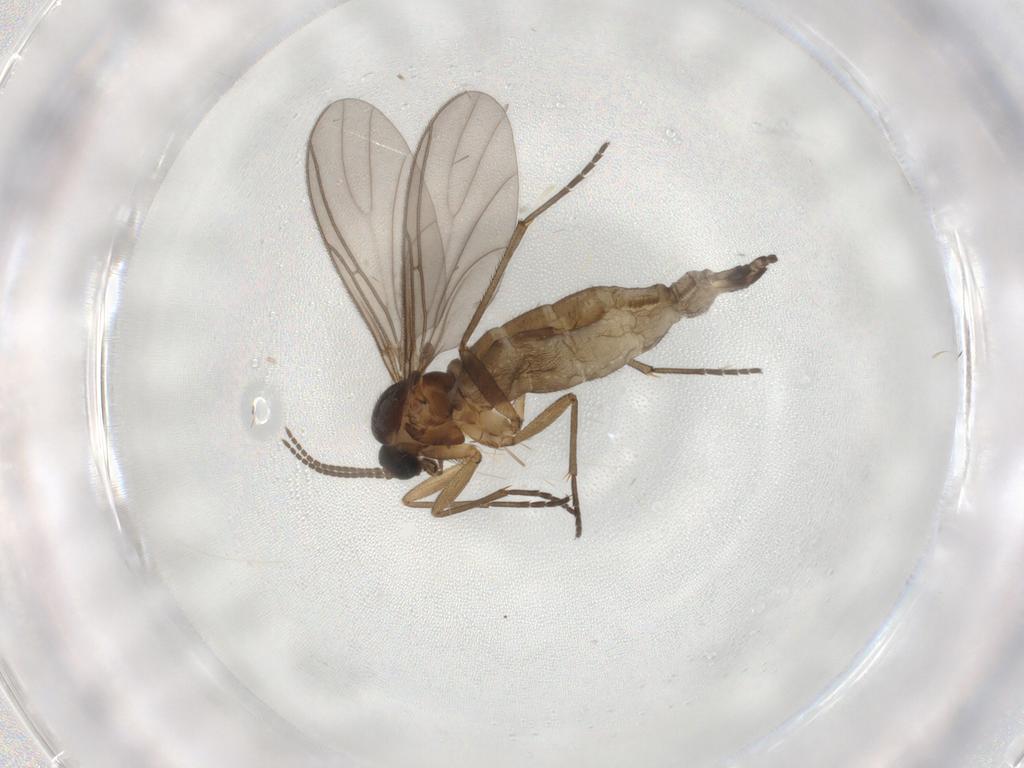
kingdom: Animalia
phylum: Arthropoda
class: Insecta
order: Diptera
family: Sciaridae
